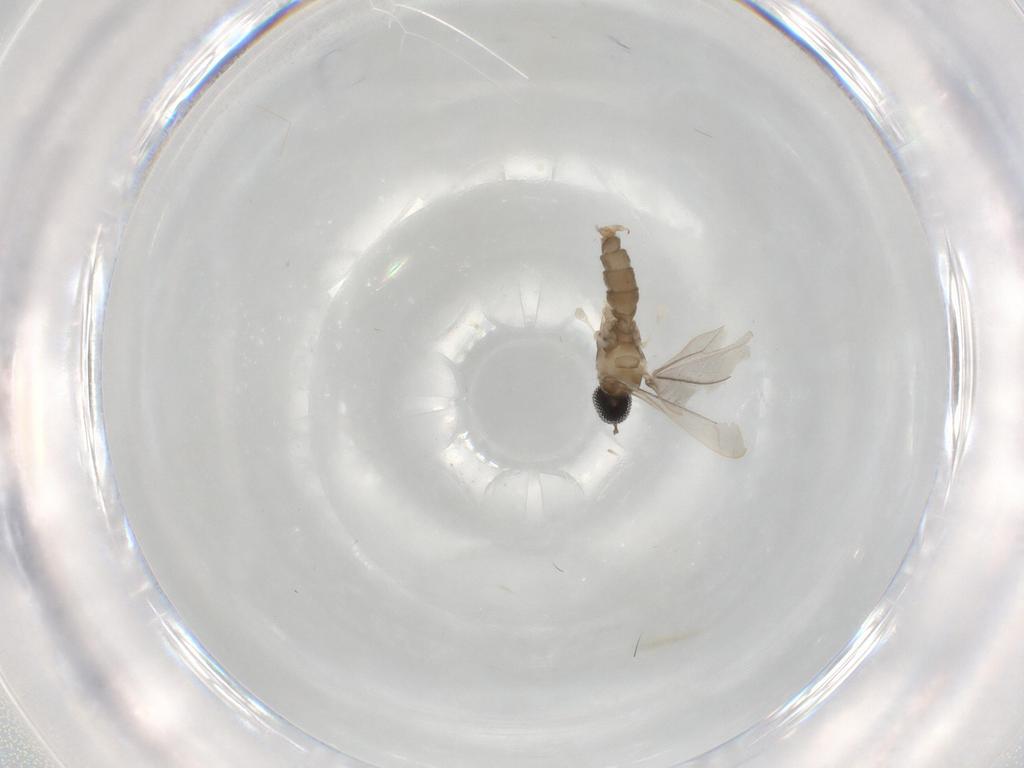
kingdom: Animalia
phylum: Arthropoda
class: Insecta
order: Diptera
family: Cecidomyiidae
